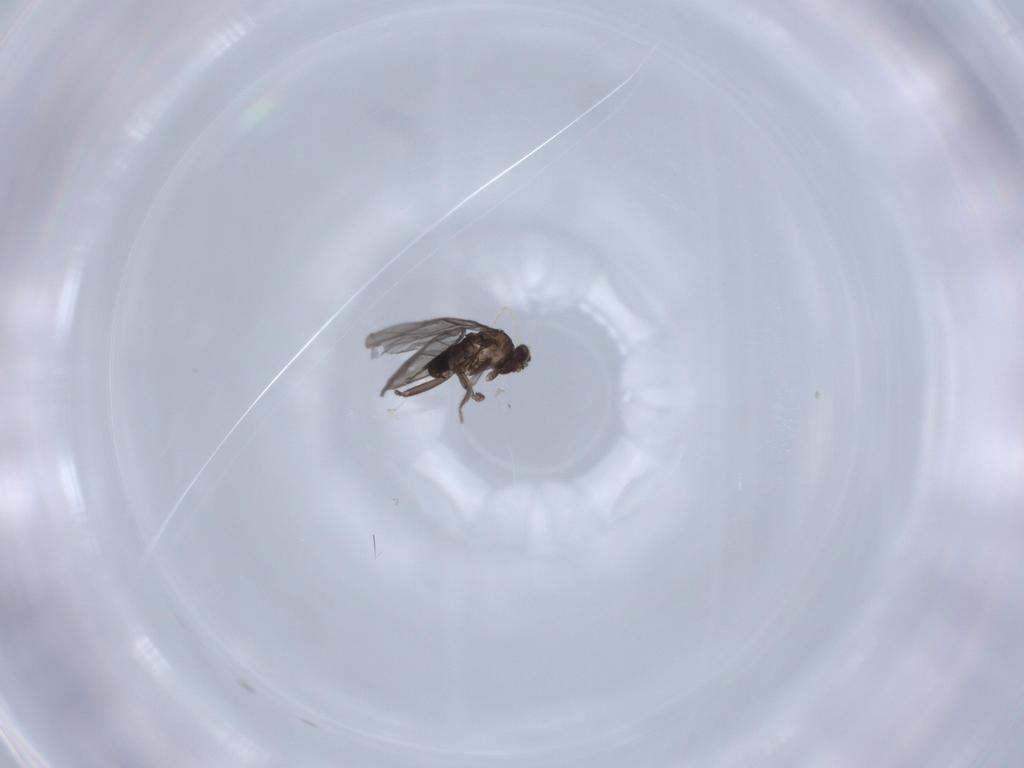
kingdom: Animalia
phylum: Arthropoda
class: Insecta
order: Diptera
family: Cecidomyiidae
